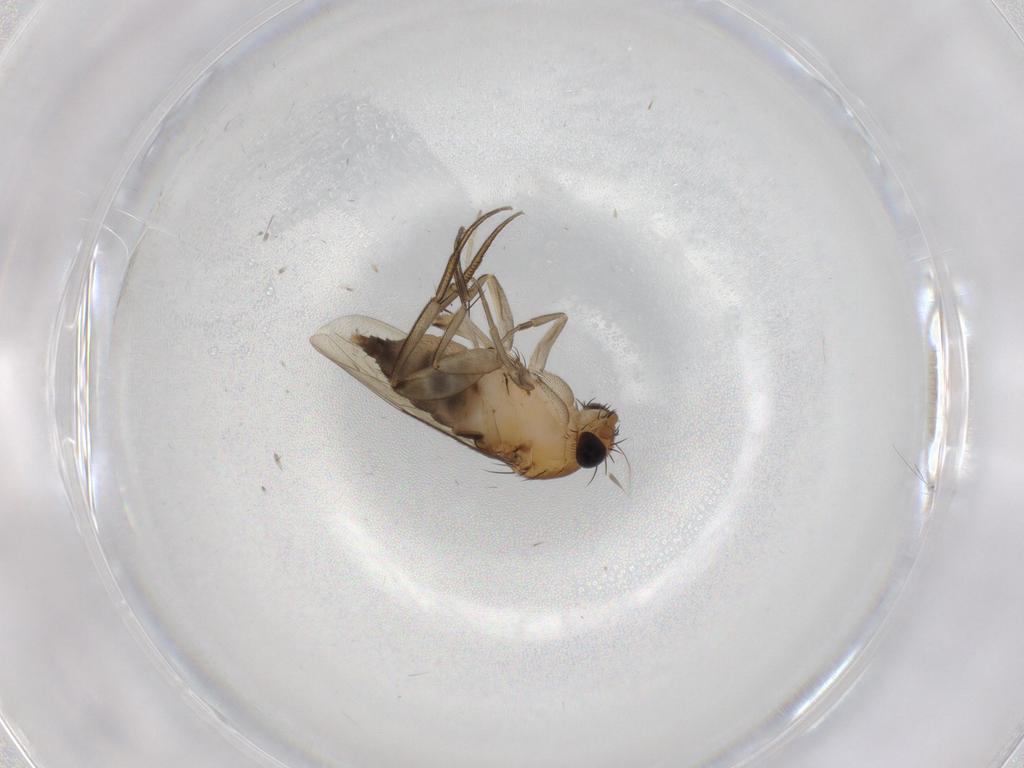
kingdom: Animalia
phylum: Arthropoda
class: Insecta
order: Diptera
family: Phoridae
